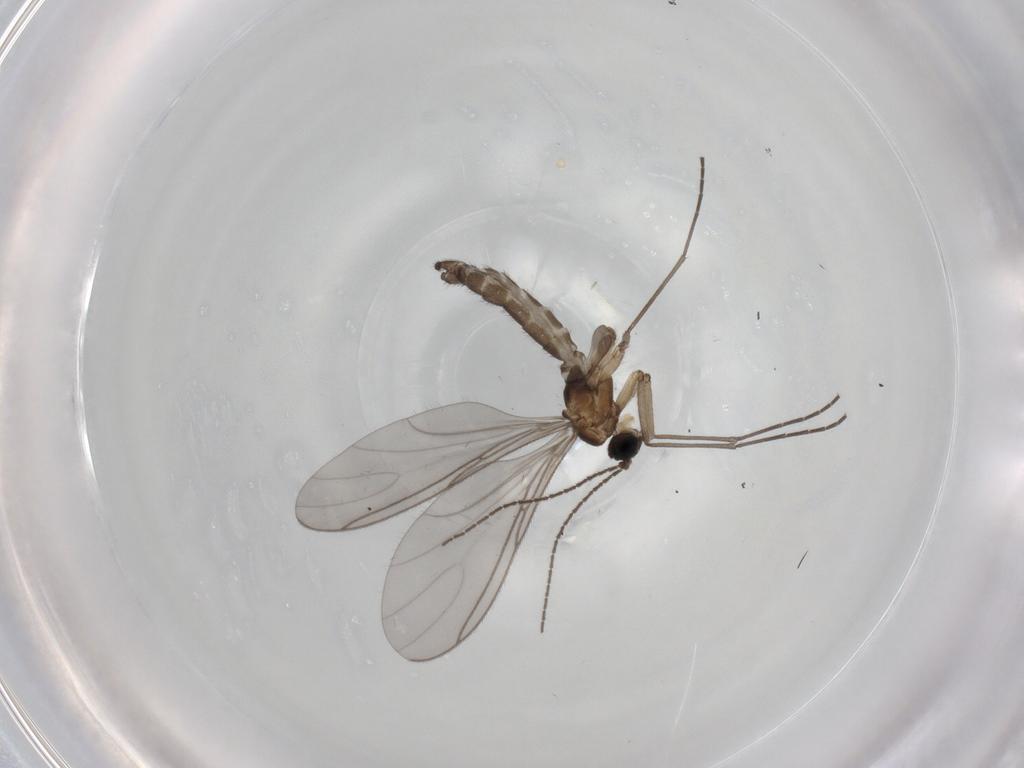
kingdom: Animalia
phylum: Arthropoda
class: Insecta
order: Diptera
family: Sciaridae
